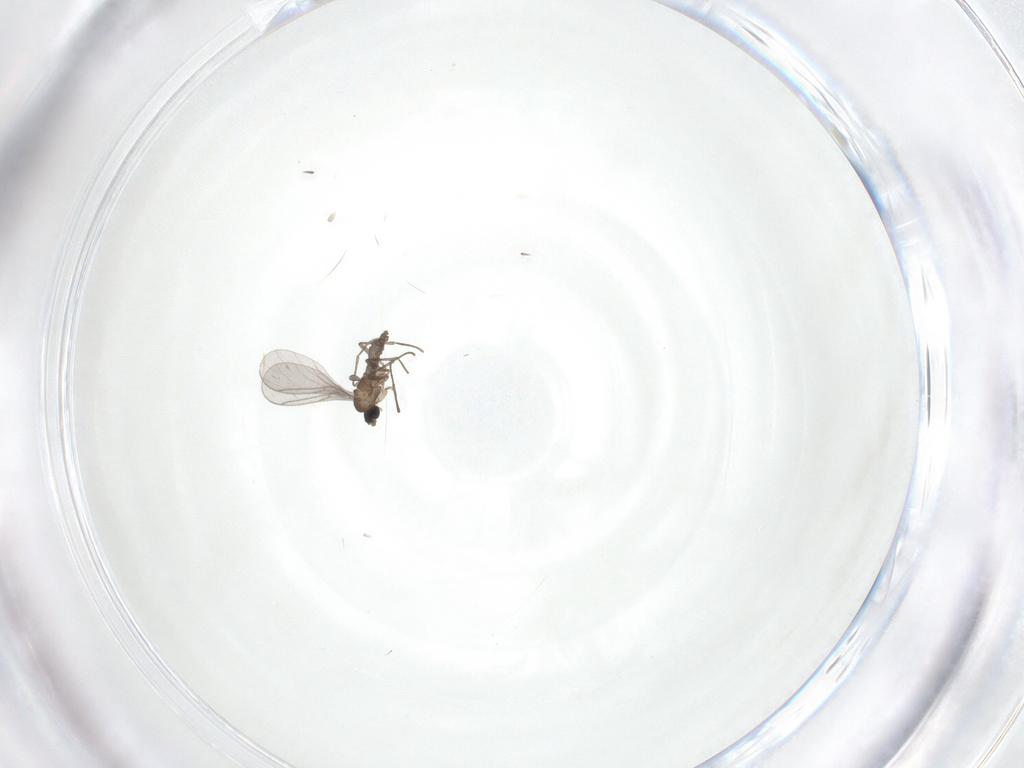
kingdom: Animalia
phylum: Arthropoda
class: Insecta
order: Diptera
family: Sciaridae
